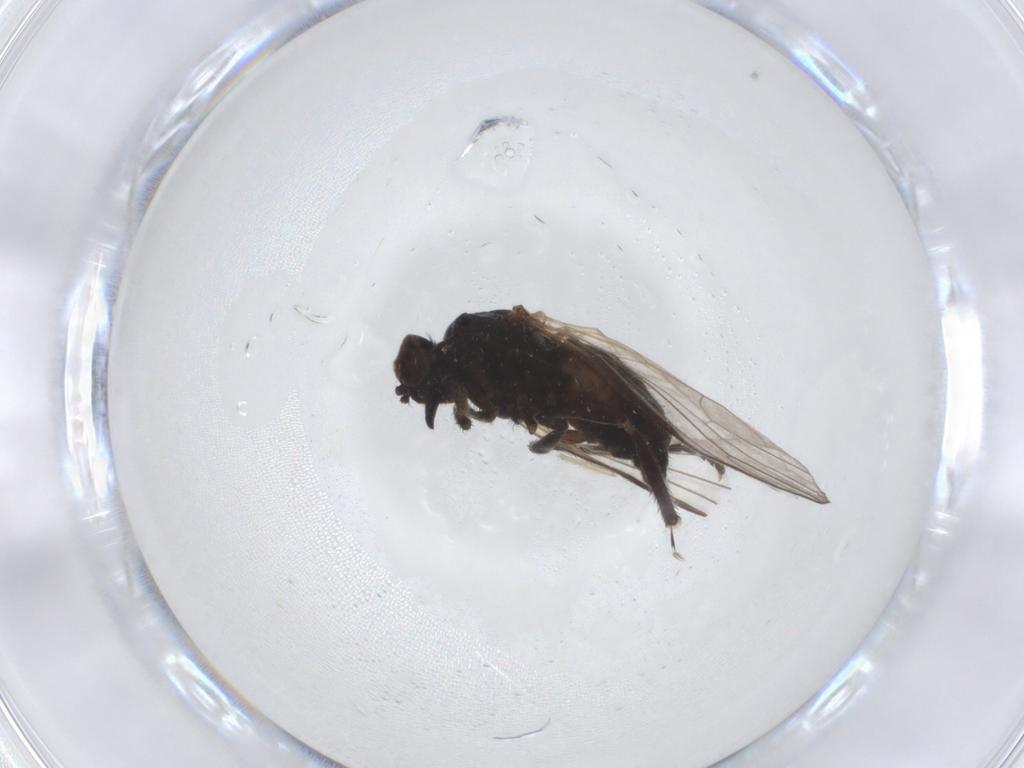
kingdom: Animalia
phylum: Arthropoda
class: Insecta
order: Diptera
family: Empididae
